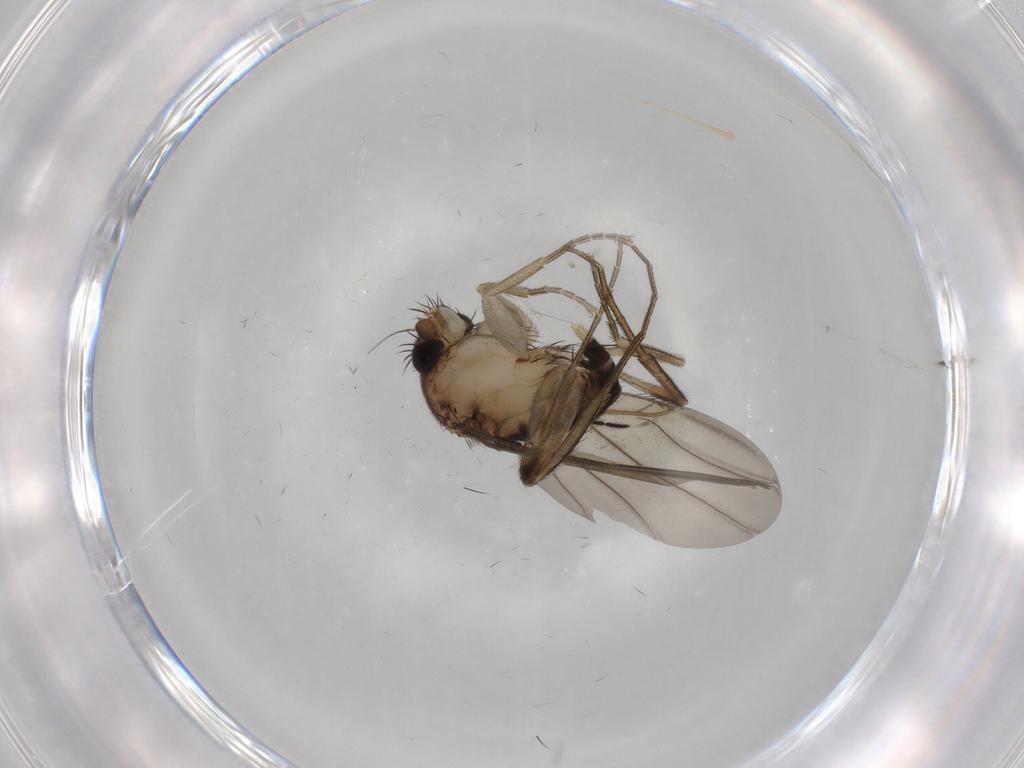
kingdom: Animalia
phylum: Arthropoda
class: Insecta
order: Diptera
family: Phoridae
